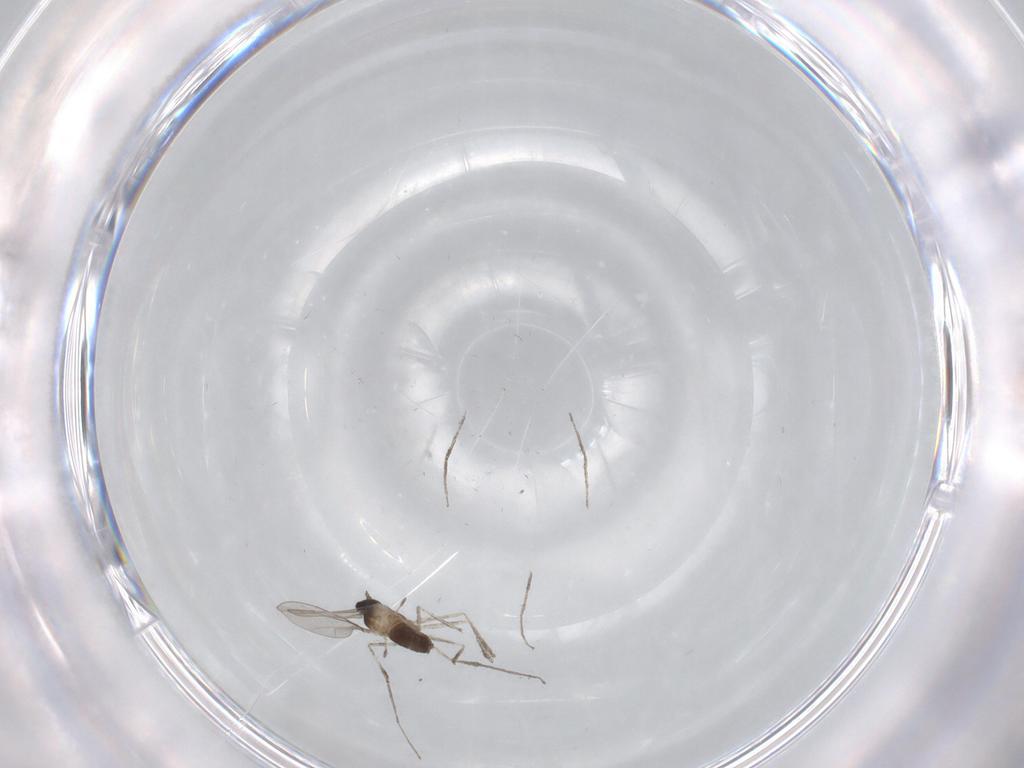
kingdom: Animalia
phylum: Arthropoda
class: Insecta
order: Diptera
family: Cecidomyiidae
